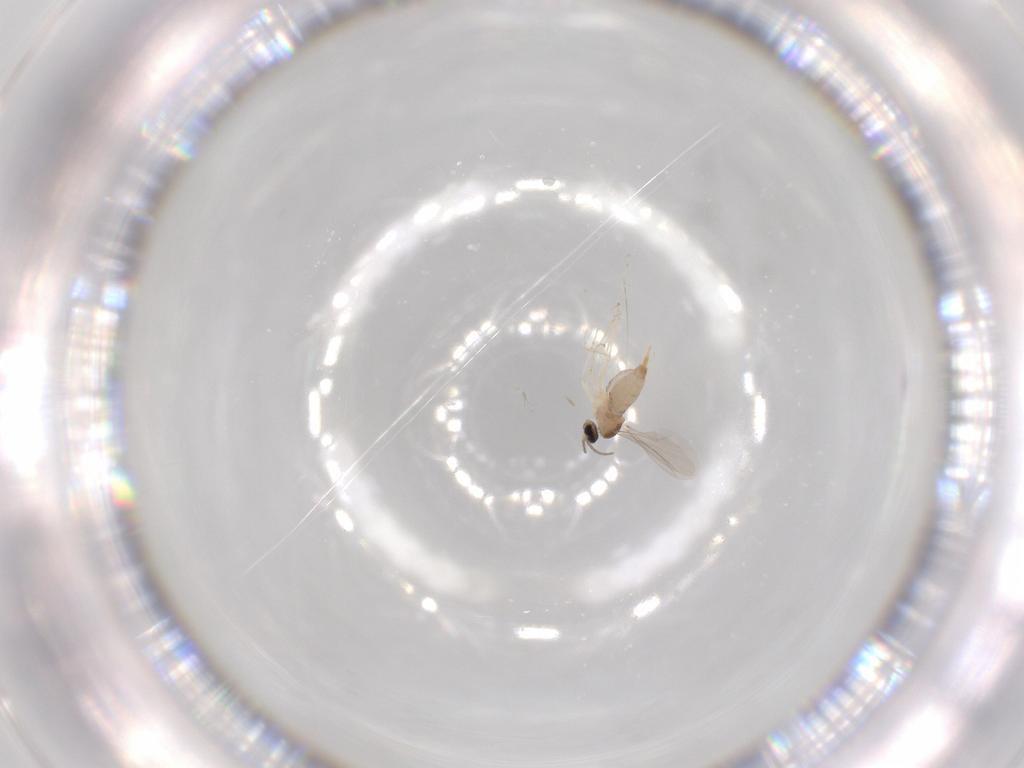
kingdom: Animalia
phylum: Arthropoda
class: Insecta
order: Diptera
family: Cecidomyiidae
